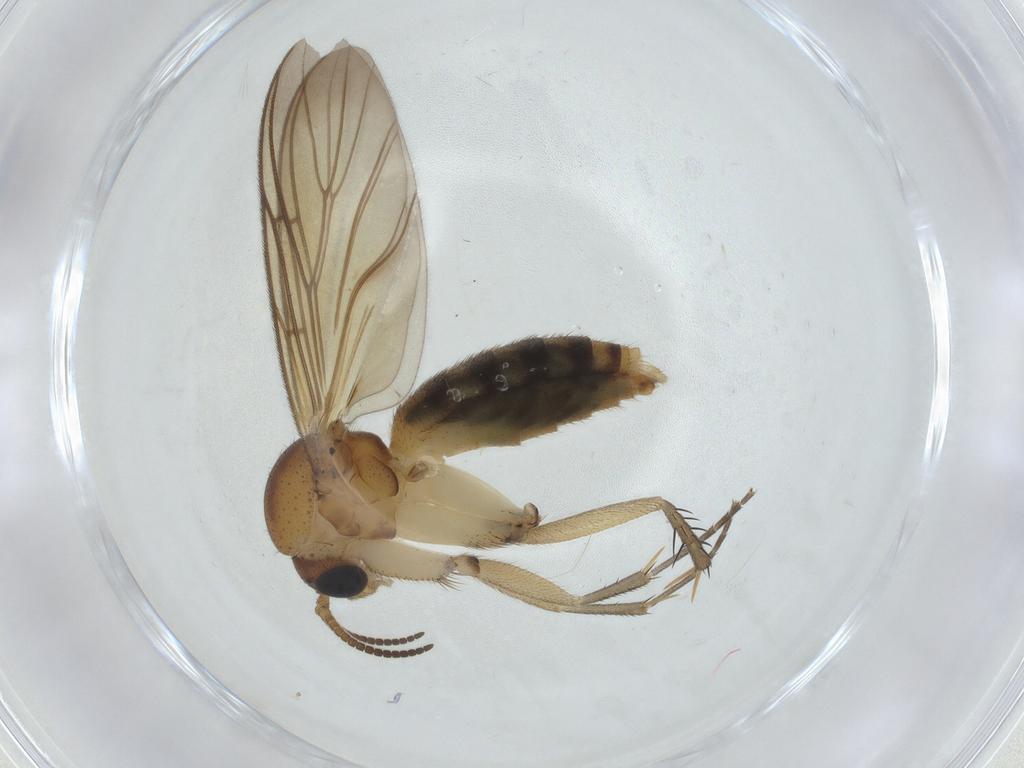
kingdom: Animalia
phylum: Arthropoda
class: Insecta
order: Diptera
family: Mycetophilidae
